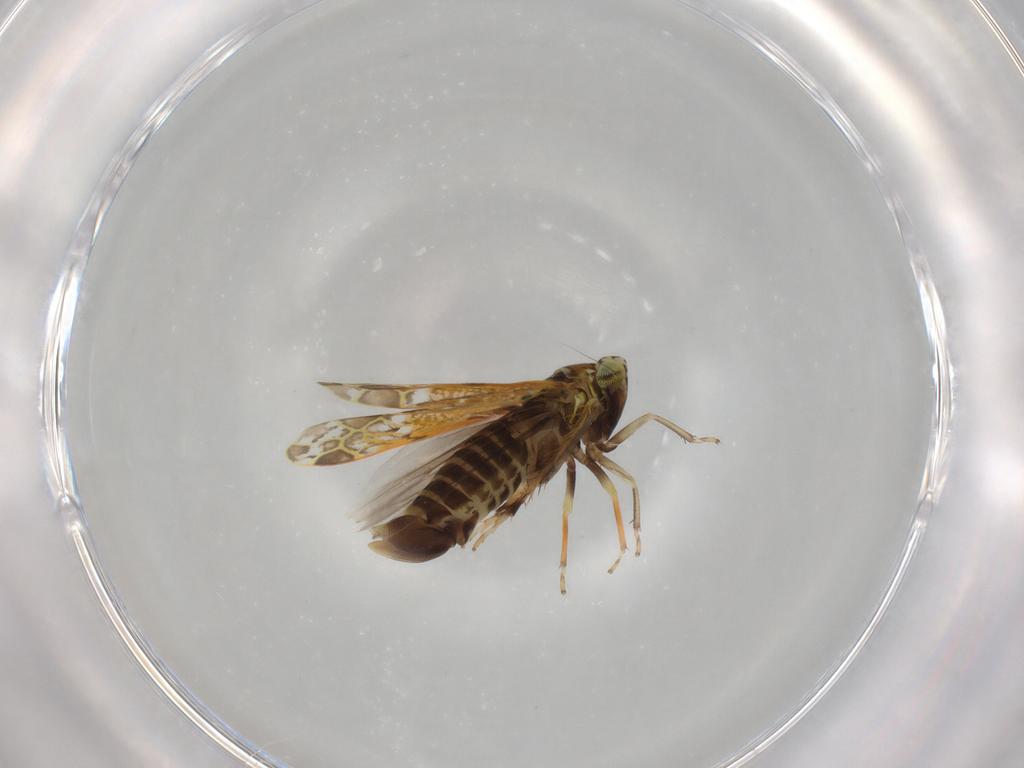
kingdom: Animalia
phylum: Arthropoda
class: Insecta
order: Hemiptera
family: Cicadellidae
